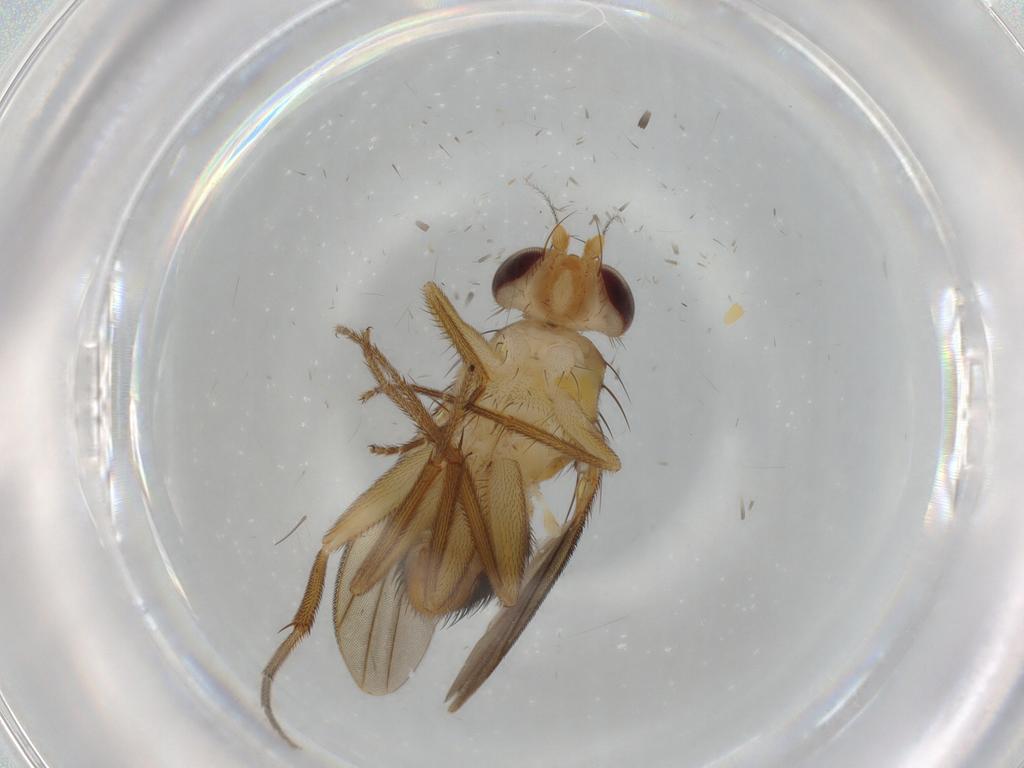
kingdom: Animalia
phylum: Arthropoda
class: Insecta
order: Diptera
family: Clusiidae
